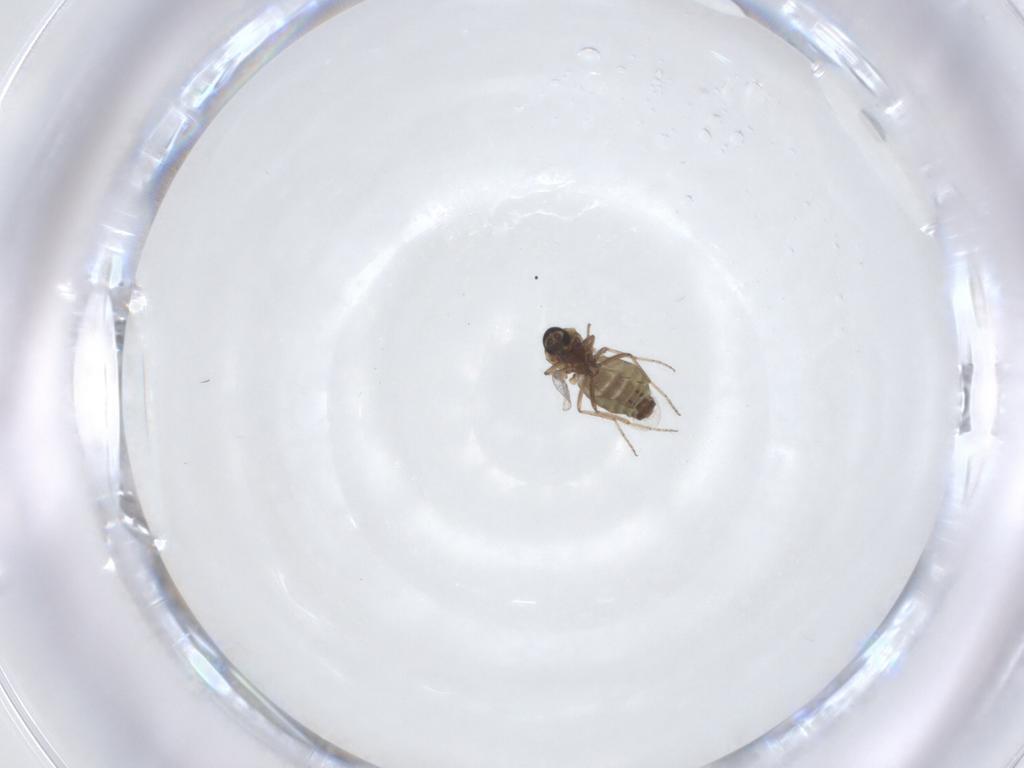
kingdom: Animalia
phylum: Arthropoda
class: Insecta
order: Diptera
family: Ceratopogonidae
